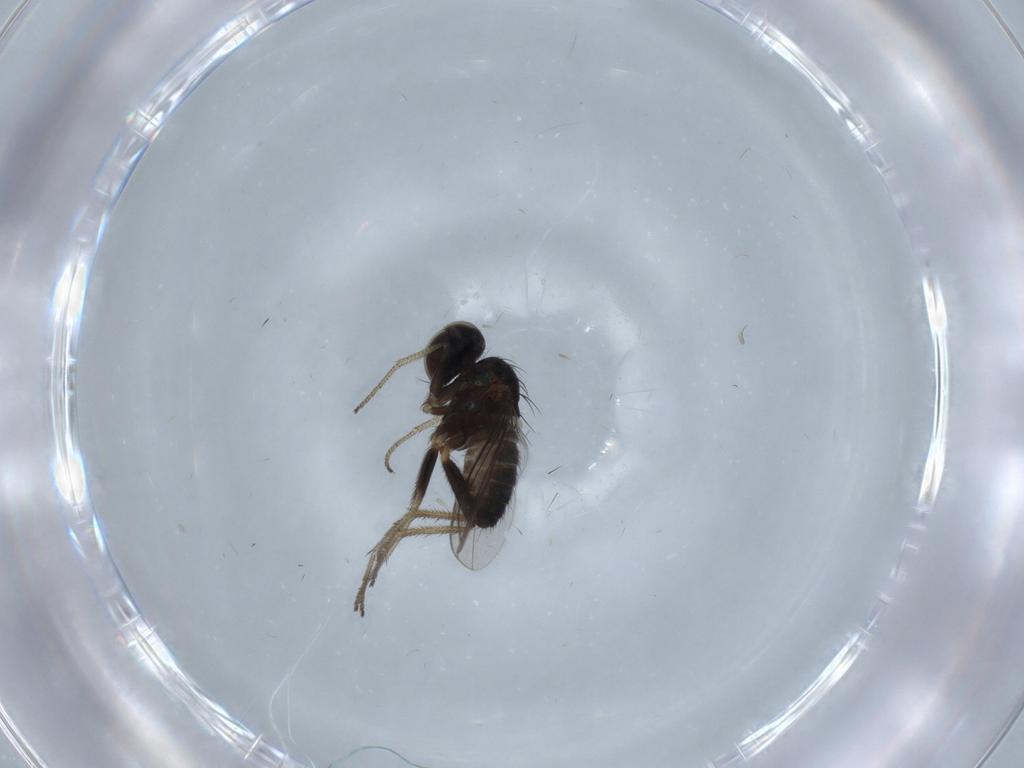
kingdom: Animalia
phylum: Arthropoda
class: Insecta
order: Diptera
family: Dolichopodidae
